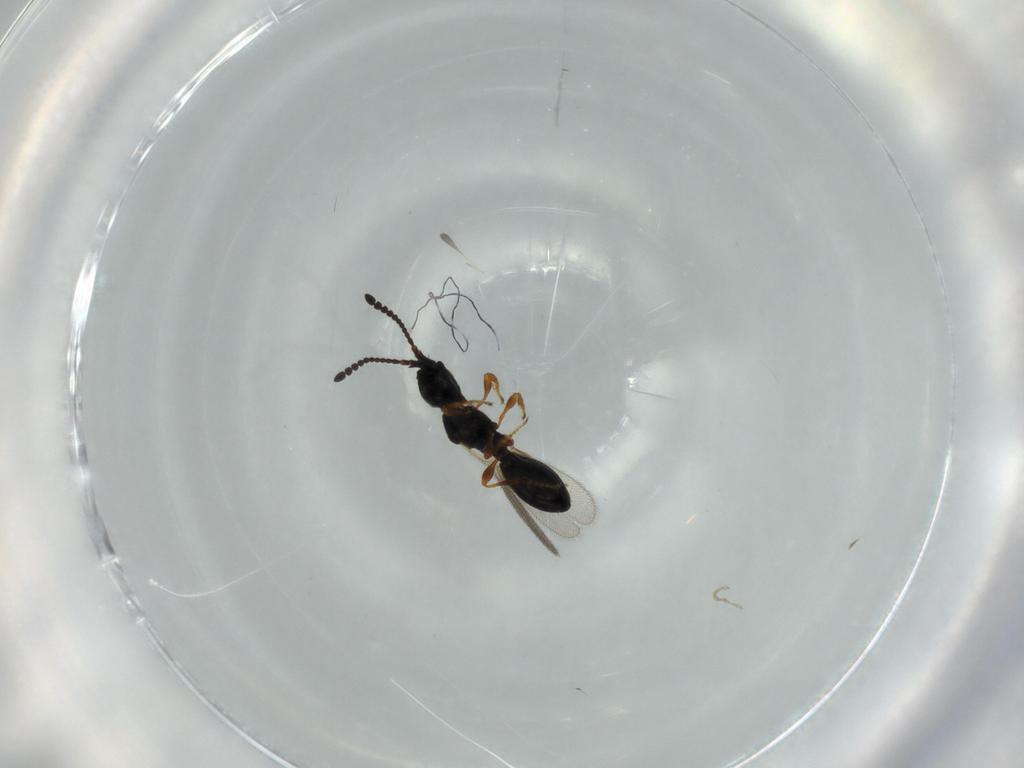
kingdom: Animalia
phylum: Arthropoda
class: Insecta
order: Hymenoptera
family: Diapriidae
